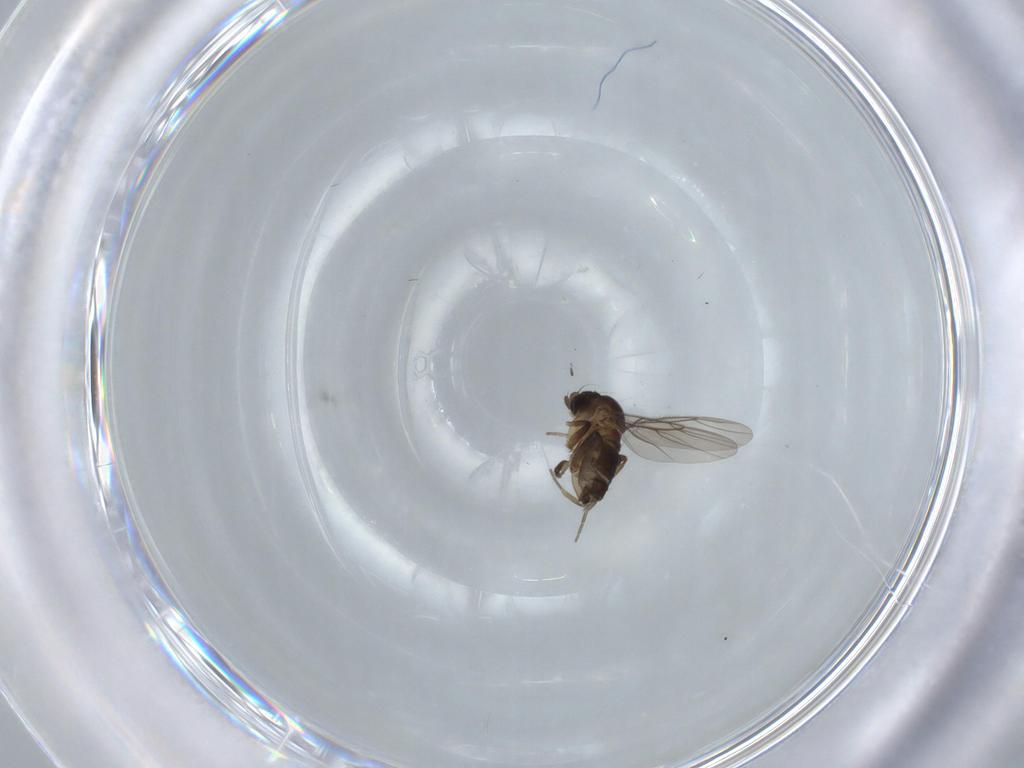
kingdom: Animalia
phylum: Arthropoda
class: Insecta
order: Diptera
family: Phoridae
